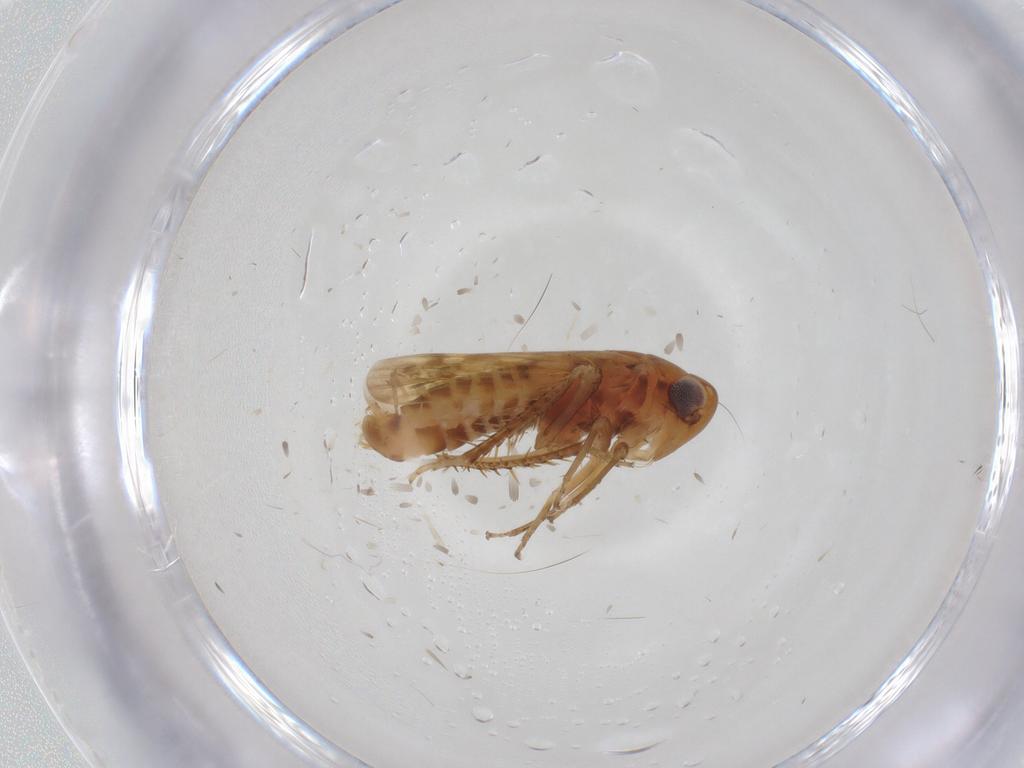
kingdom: Animalia
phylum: Arthropoda
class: Insecta
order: Hemiptera
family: Cicadellidae
